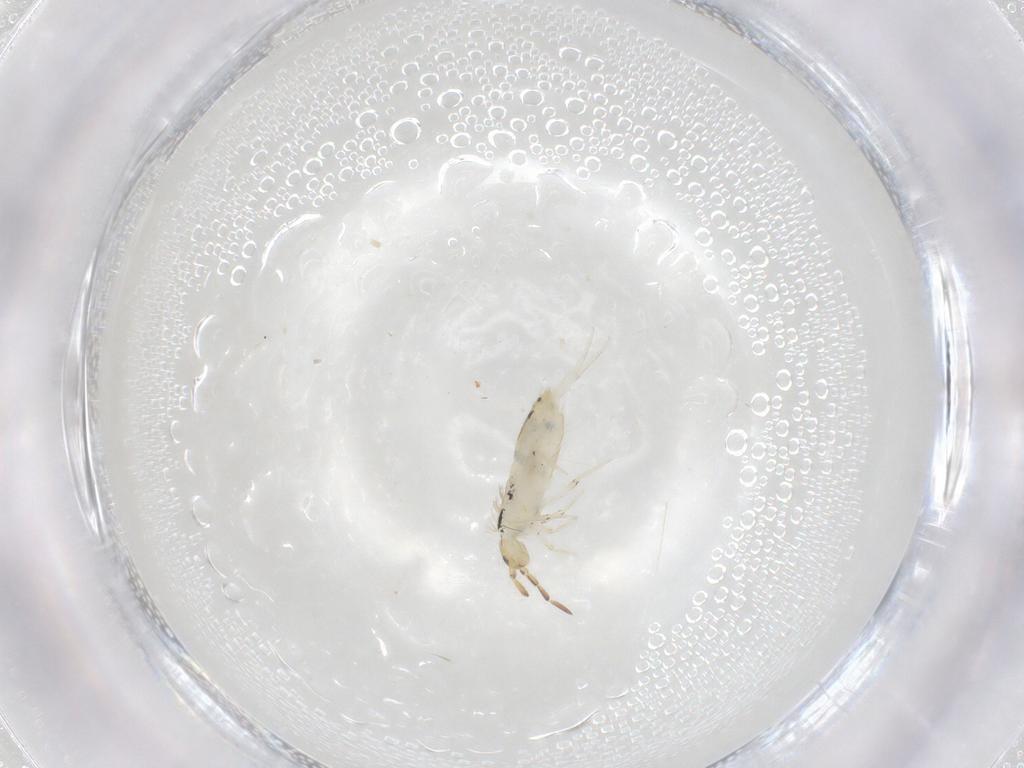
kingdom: Animalia
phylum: Arthropoda
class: Collembola
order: Entomobryomorpha
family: Entomobryidae
